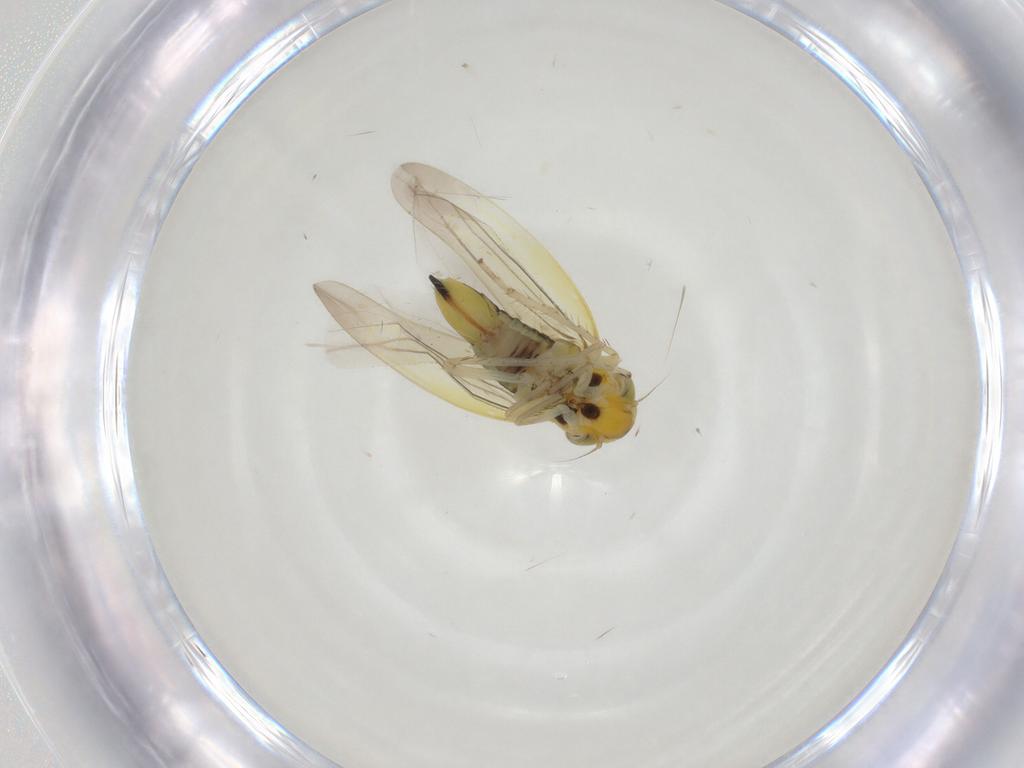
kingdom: Animalia
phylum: Arthropoda
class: Insecta
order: Hemiptera
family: Cicadellidae
